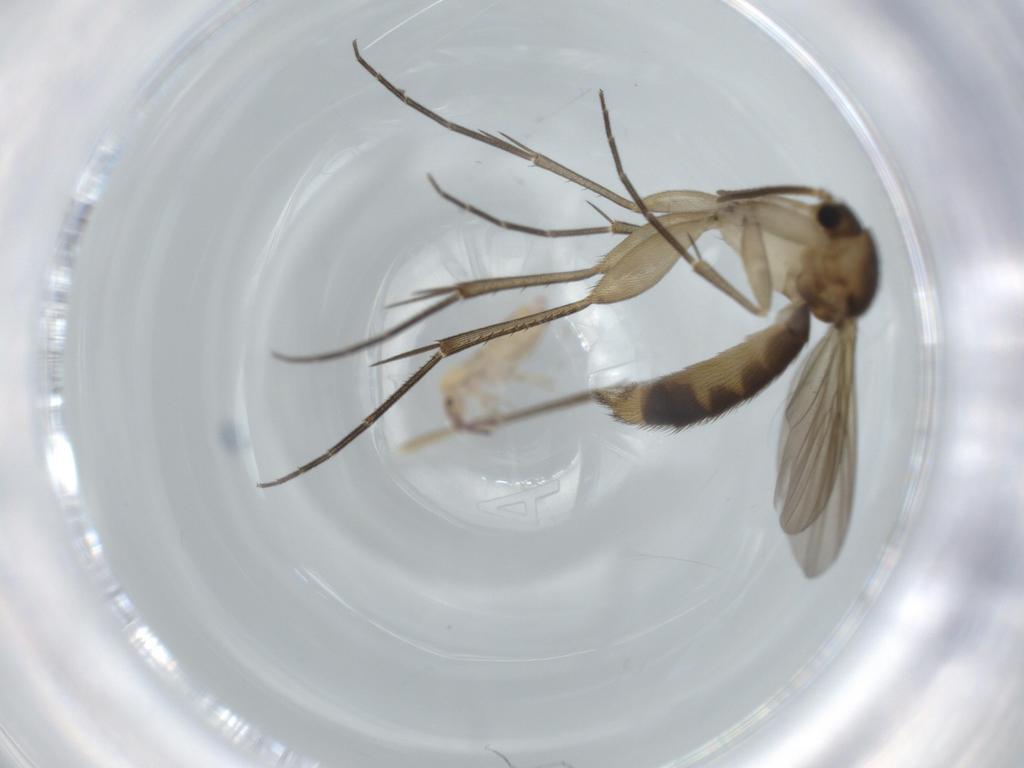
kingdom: Animalia
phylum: Arthropoda
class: Collembola
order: Entomobryomorpha
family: Entomobryidae
